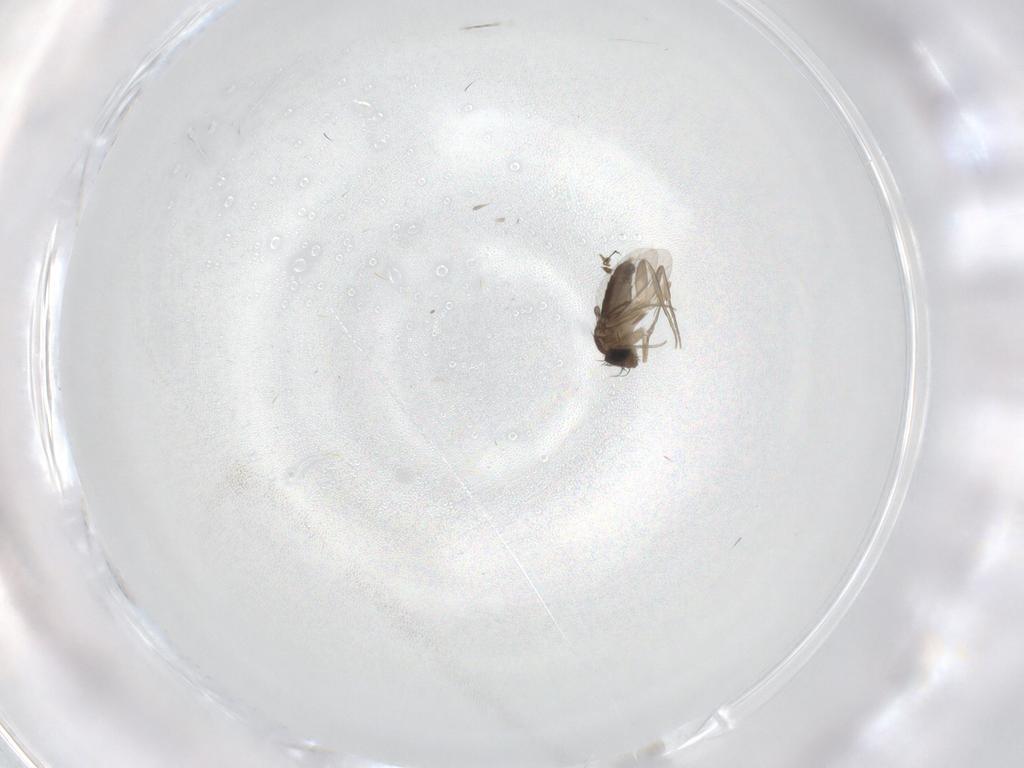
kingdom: Animalia
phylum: Arthropoda
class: Insecta
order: Diptera
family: Phoridae
